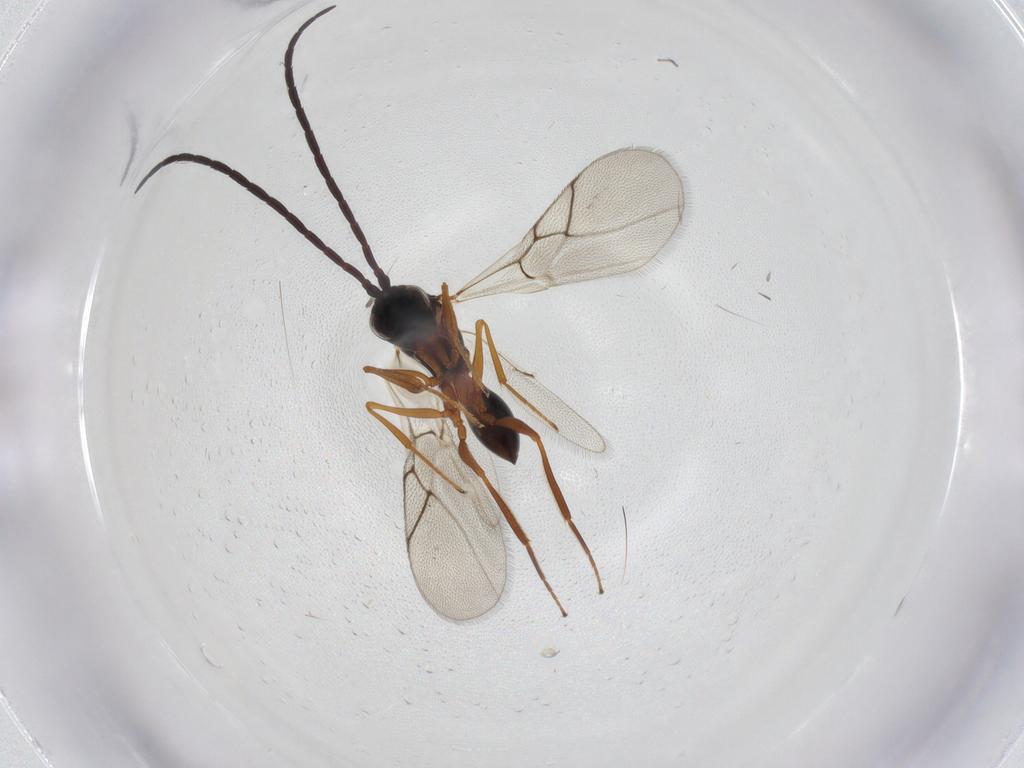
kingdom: Animalia
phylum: Arthropoda
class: Insecta
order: Hymenoptera
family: Figitidae
